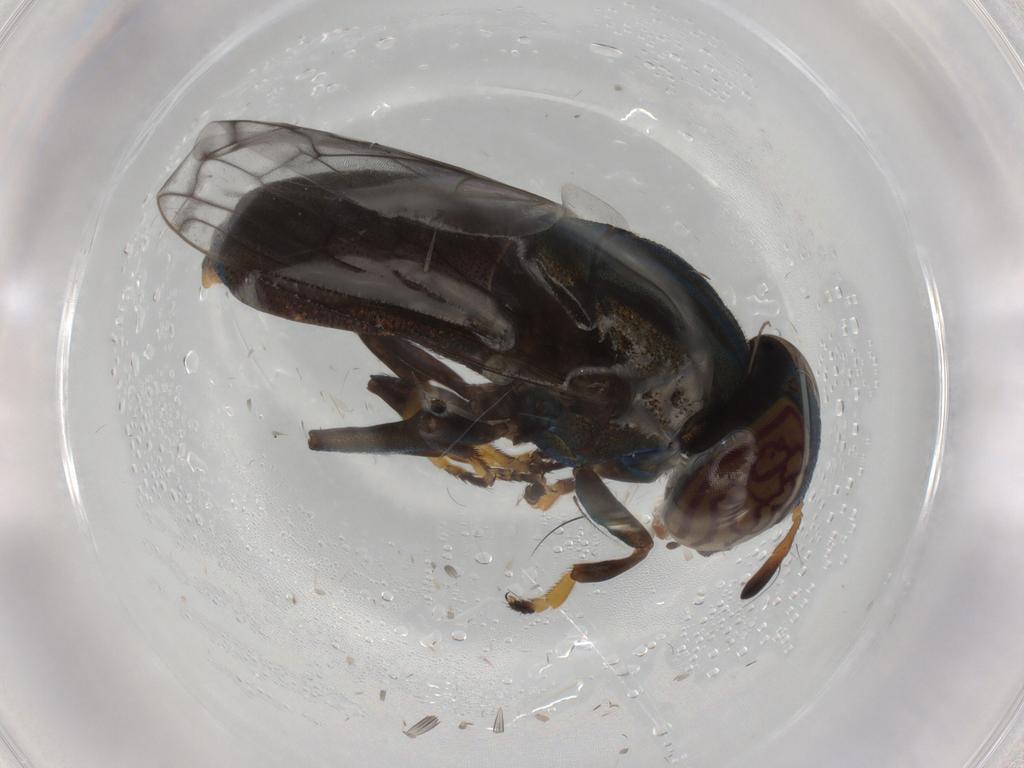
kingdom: Animalia
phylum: Arthropoda
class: Insecta
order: Diptera
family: Syrphidae
